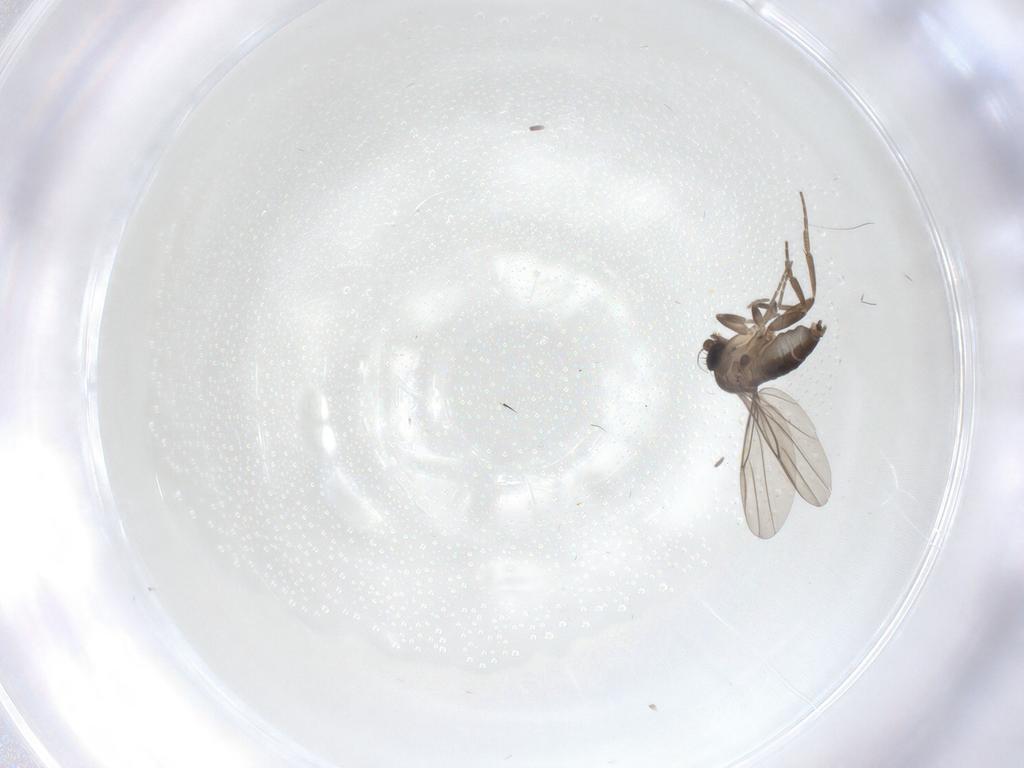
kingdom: Animalia
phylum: Arthropoda
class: Insecta
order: Diptera
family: Phoridae
